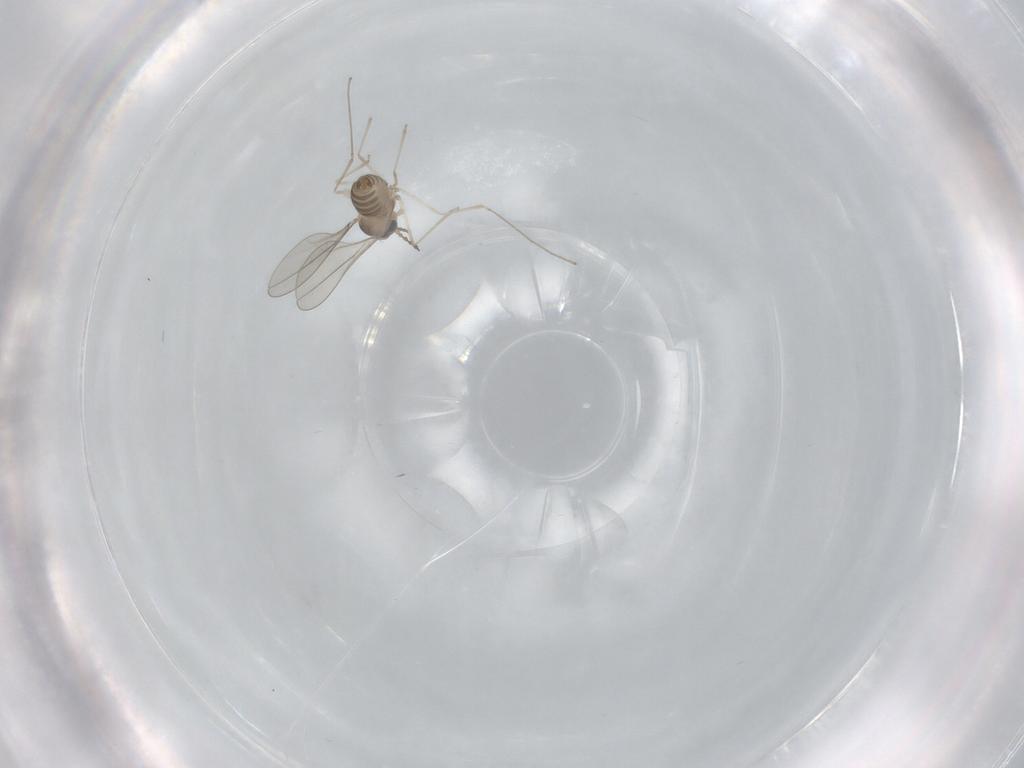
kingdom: Animalia
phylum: Arthropoda
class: Insecta
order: Diptera
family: Cecidomyiidae
